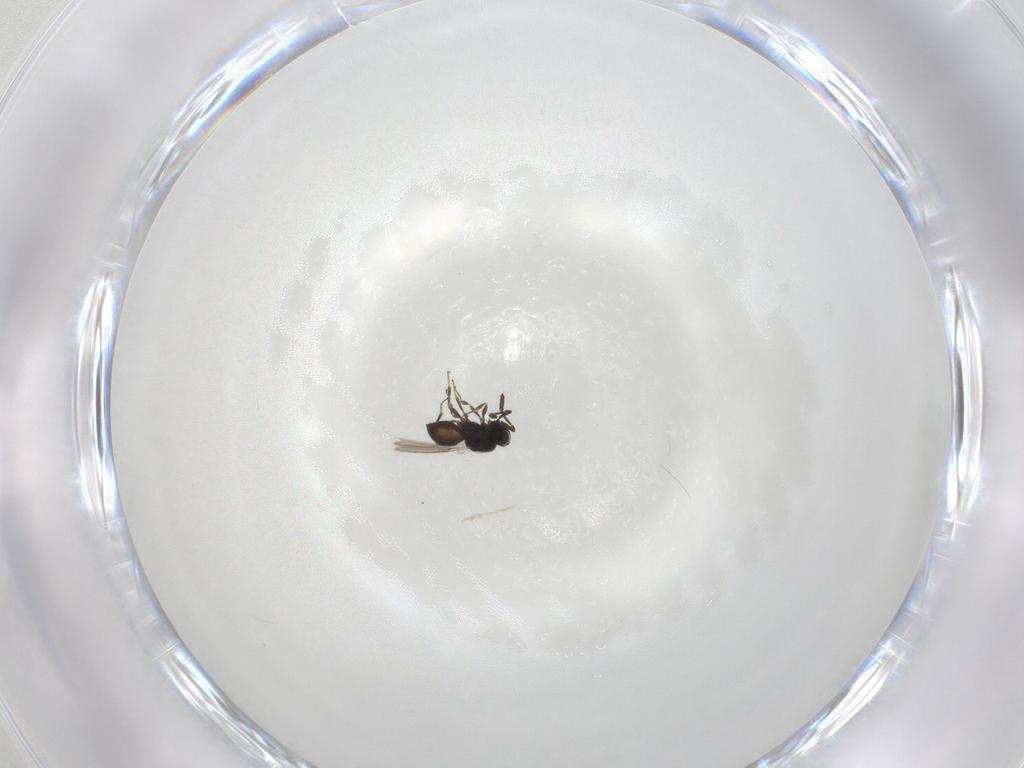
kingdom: Animalia
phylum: Arthropoda
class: Insecta
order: Hymenoptera
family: Scelionidae
